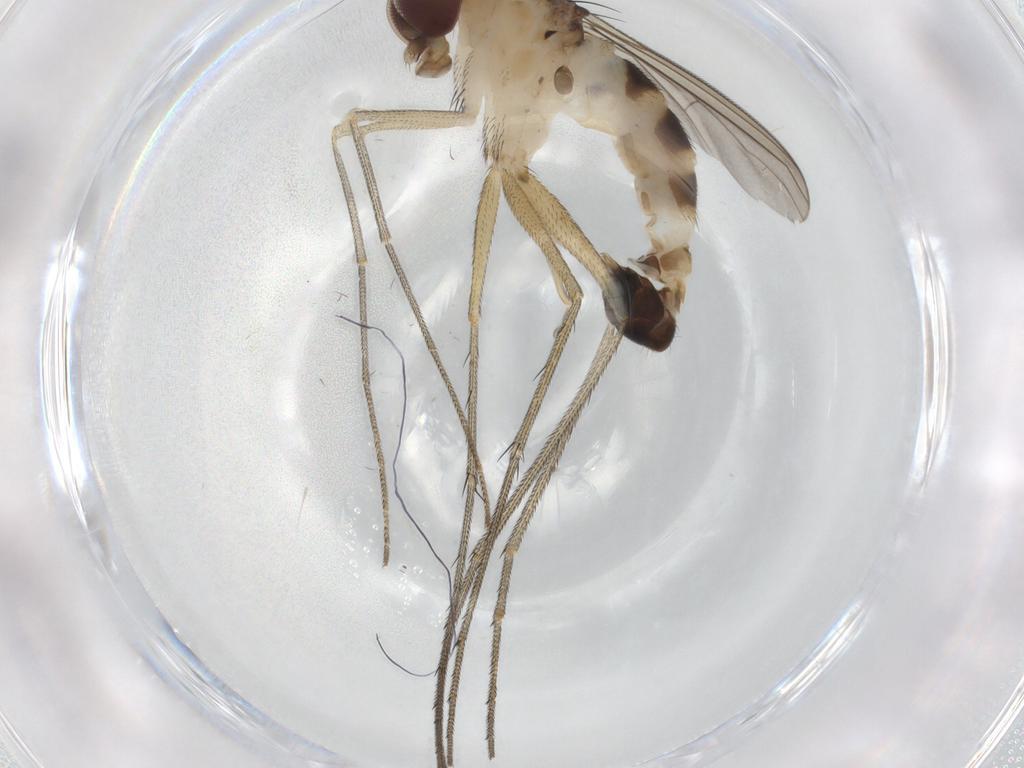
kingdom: Animalia
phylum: Arthropoda
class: Insecta
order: Diptera
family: Dolichopodidae
